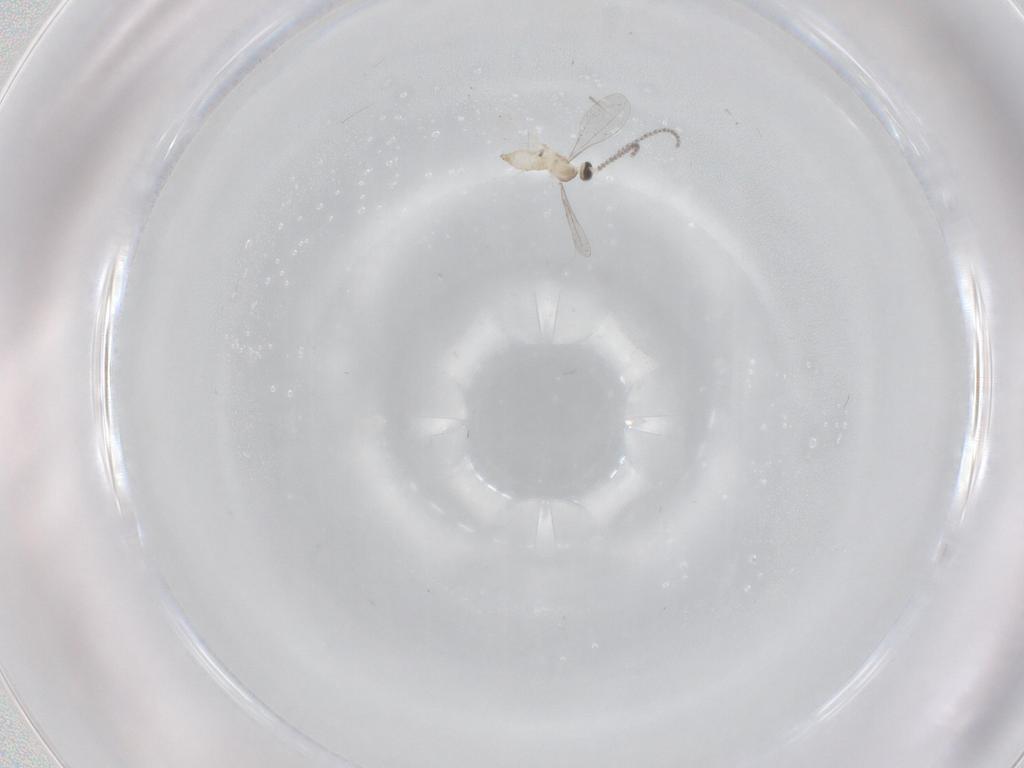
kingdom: Animalia
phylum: Arthropoda
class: Insecta
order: Diptera
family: Cecidomyiidae
